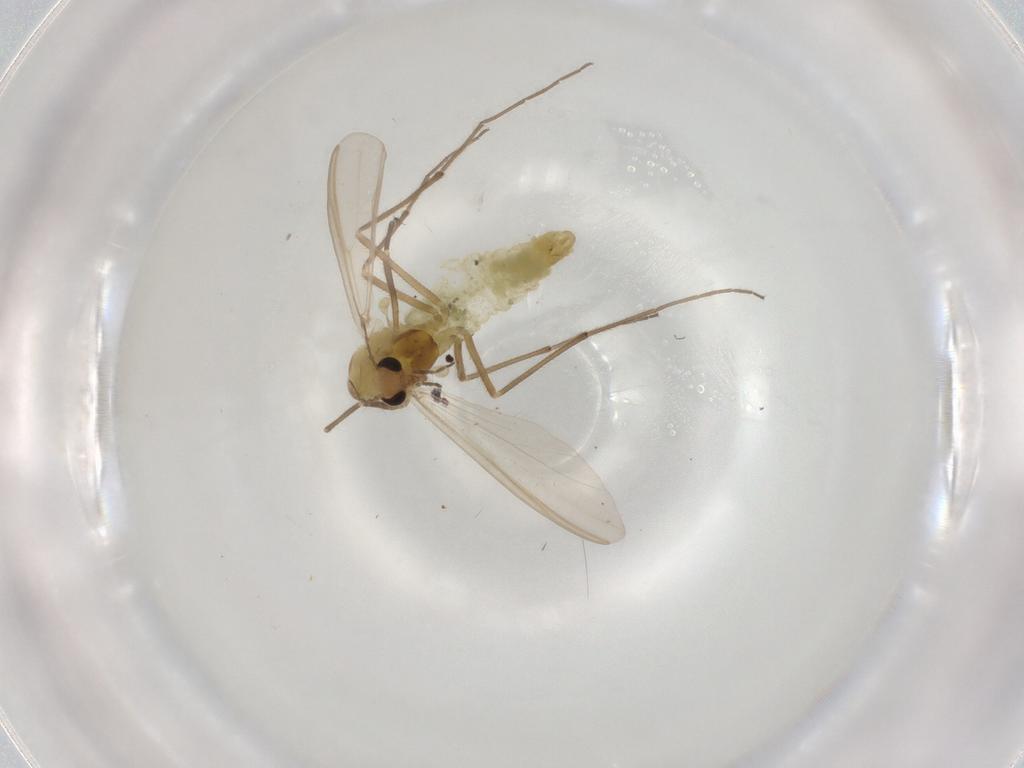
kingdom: Animalia
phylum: Arthropoda
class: Insecta
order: Diptera
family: Chironomidae
